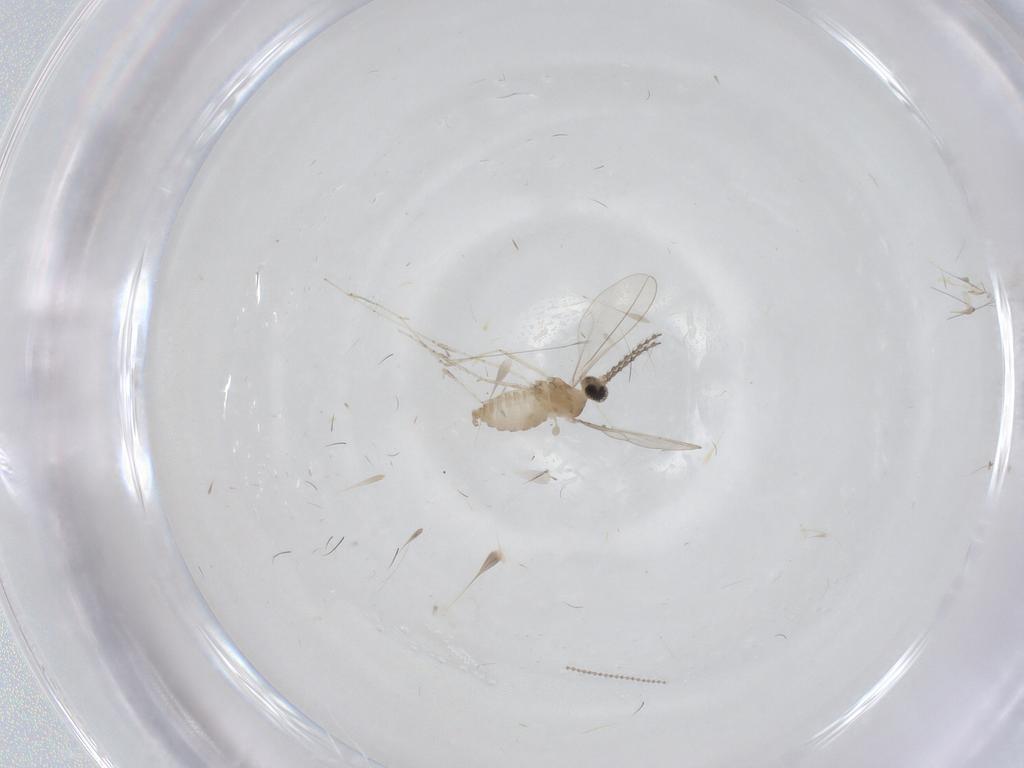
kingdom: Animalia
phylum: Arthropoda
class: Insecta
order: Diptera
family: Cecidomyiidae
